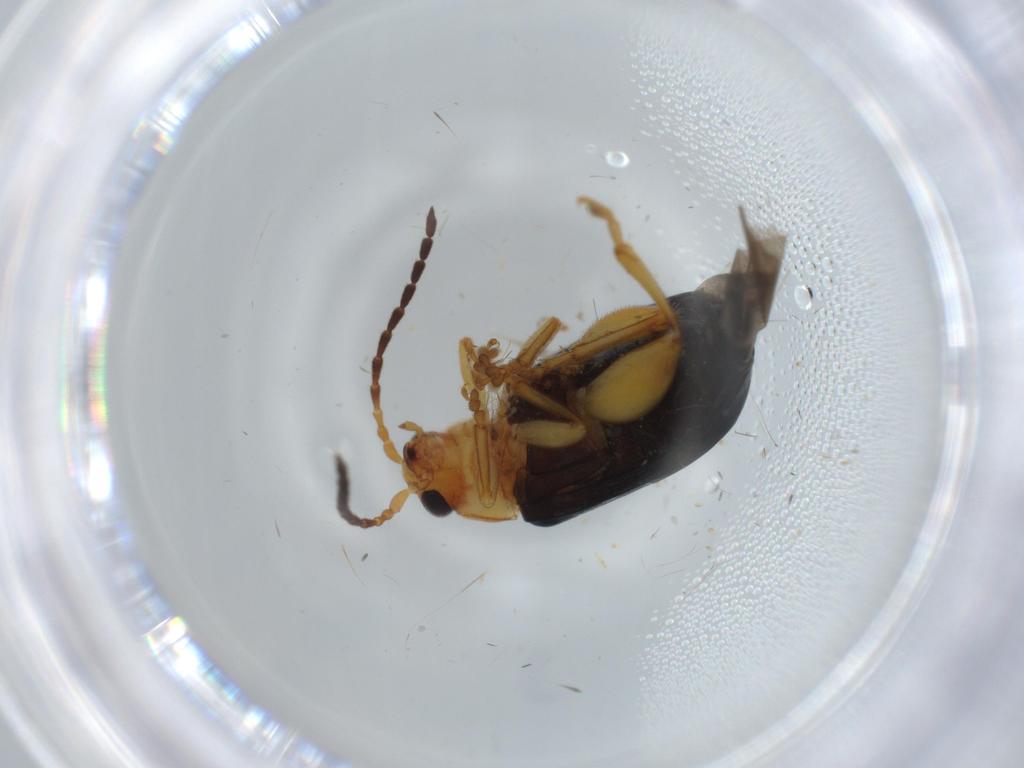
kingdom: Animalia
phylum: Arthropoda
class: Insecta
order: Coleoptera
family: Chrysomelidae
